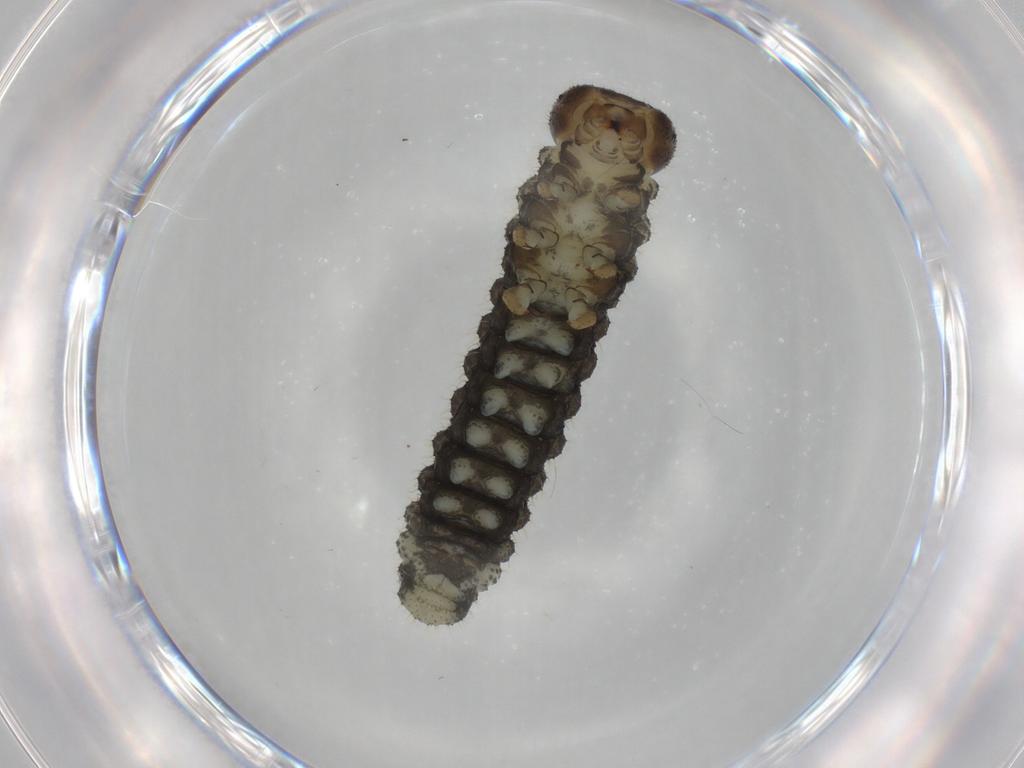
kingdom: Animalia
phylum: Arthropoda
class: Insecta
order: Diptera
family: Chironomidae
